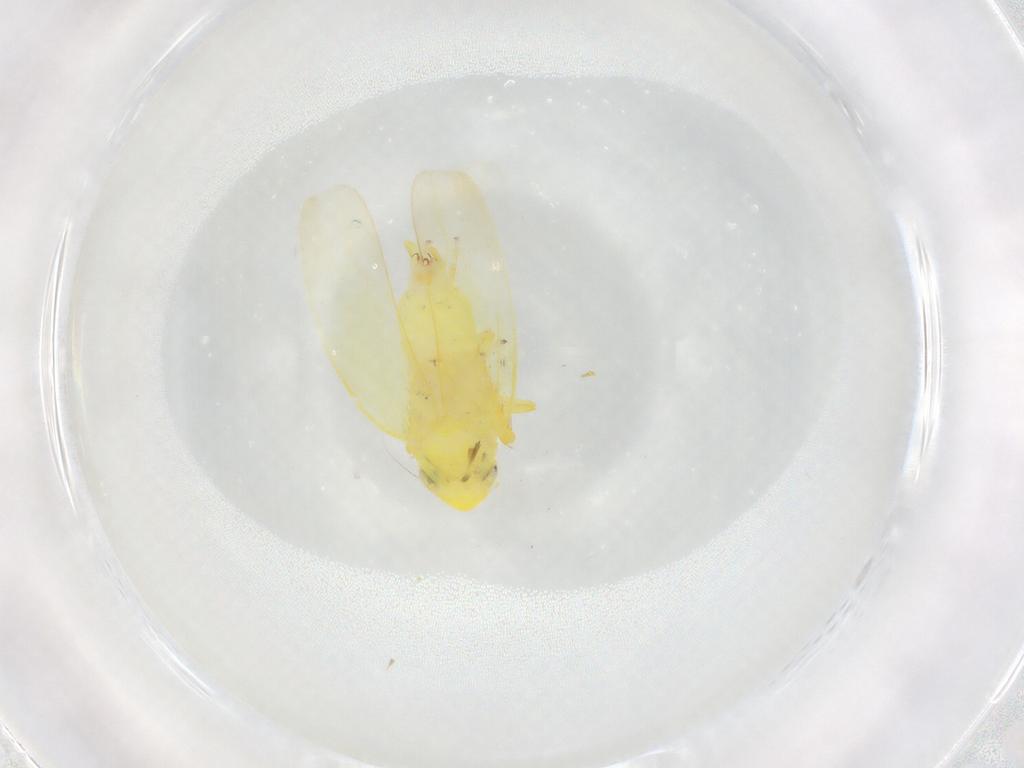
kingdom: Animalia
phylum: Arthropoda
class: Insecta
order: Hemiptera
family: Cicadellidae
